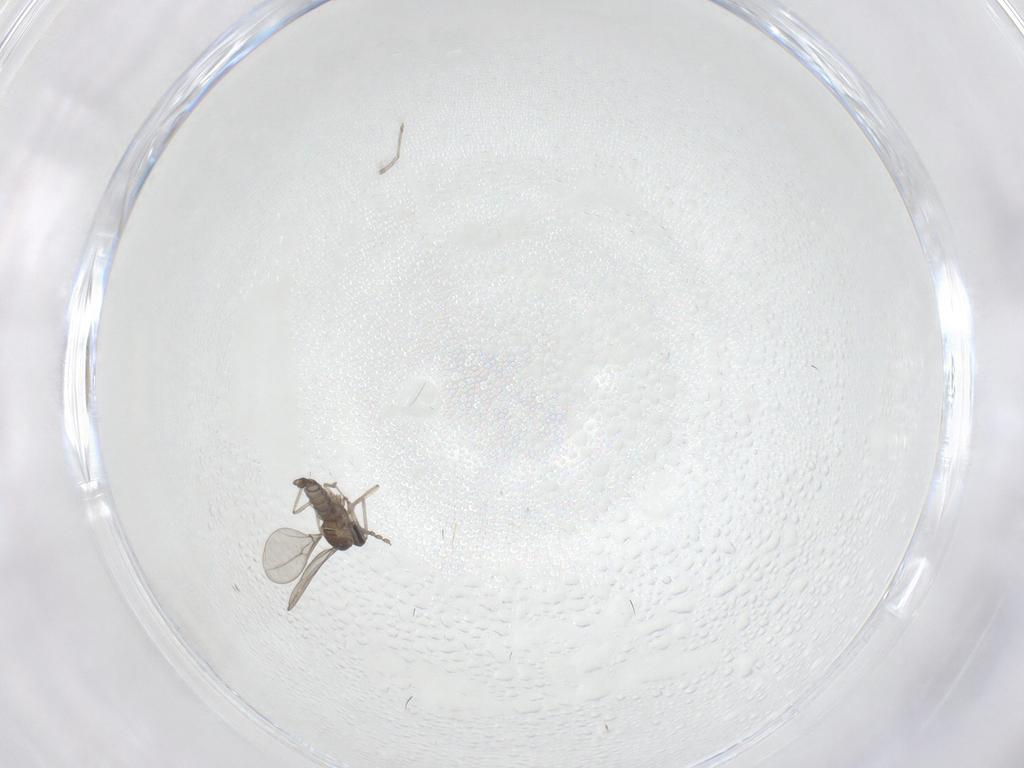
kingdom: Animalia
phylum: Arthropoda
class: Insecta
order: Diptera
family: Cecidomyiidae
